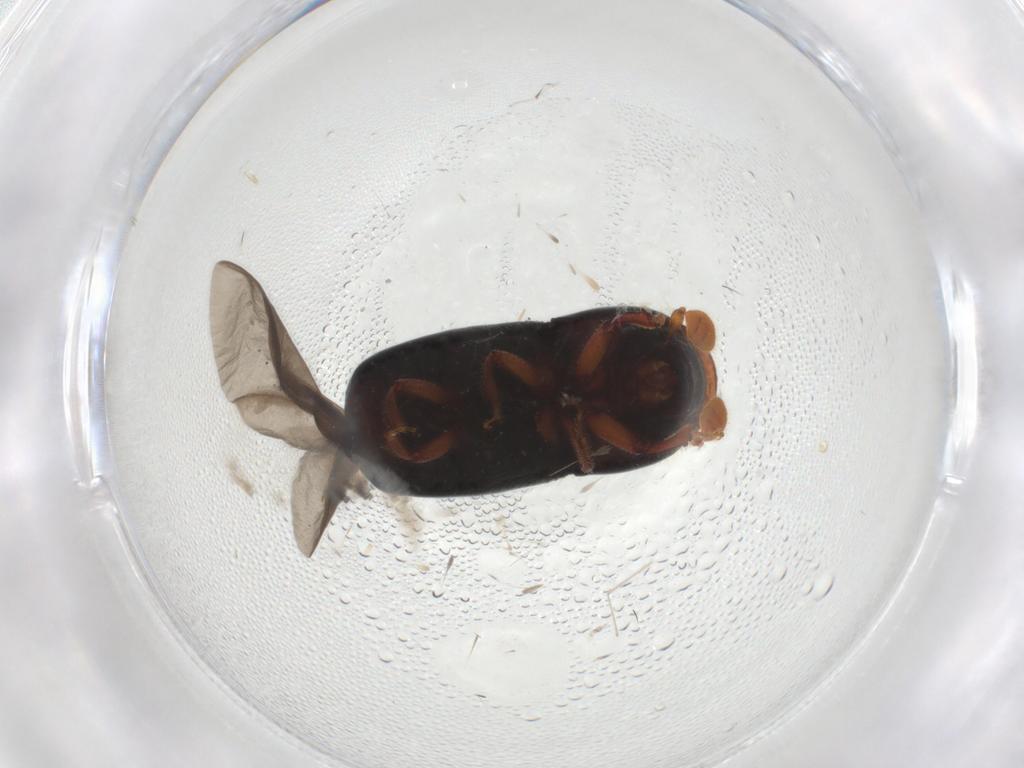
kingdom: Animalia
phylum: Arthropoda
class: Insecta
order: Coleoptera
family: Curculionidae
